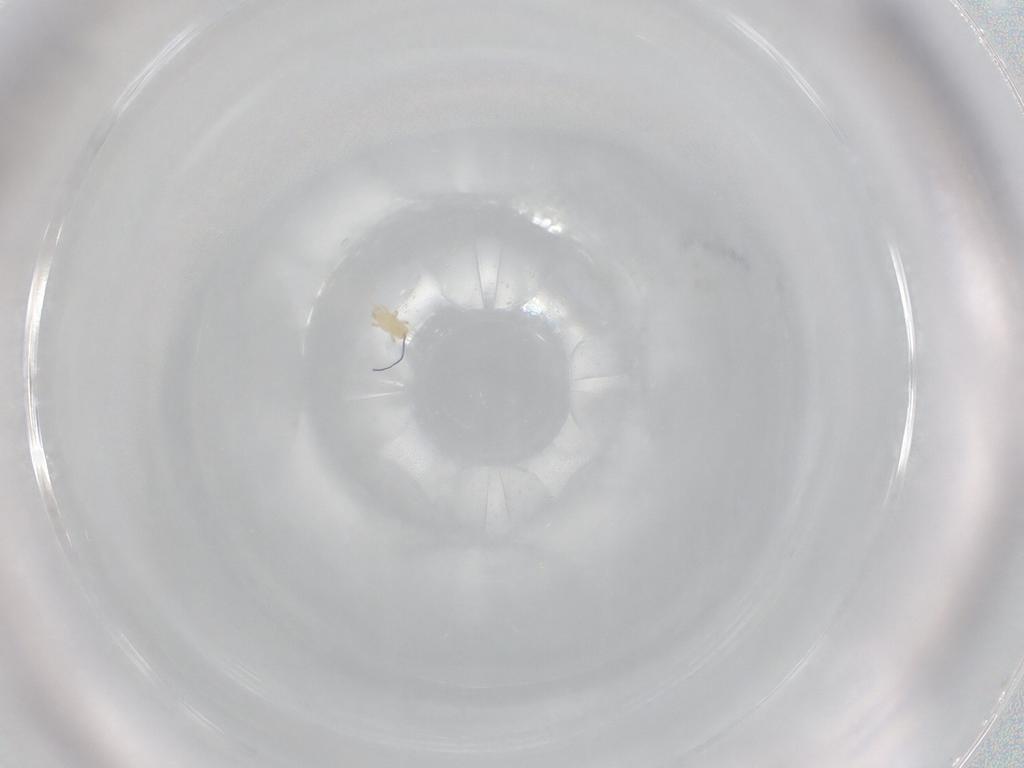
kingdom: Animalia
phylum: Arthropoda
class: Arachnida
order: Mesostigmata
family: Digamasellidae
